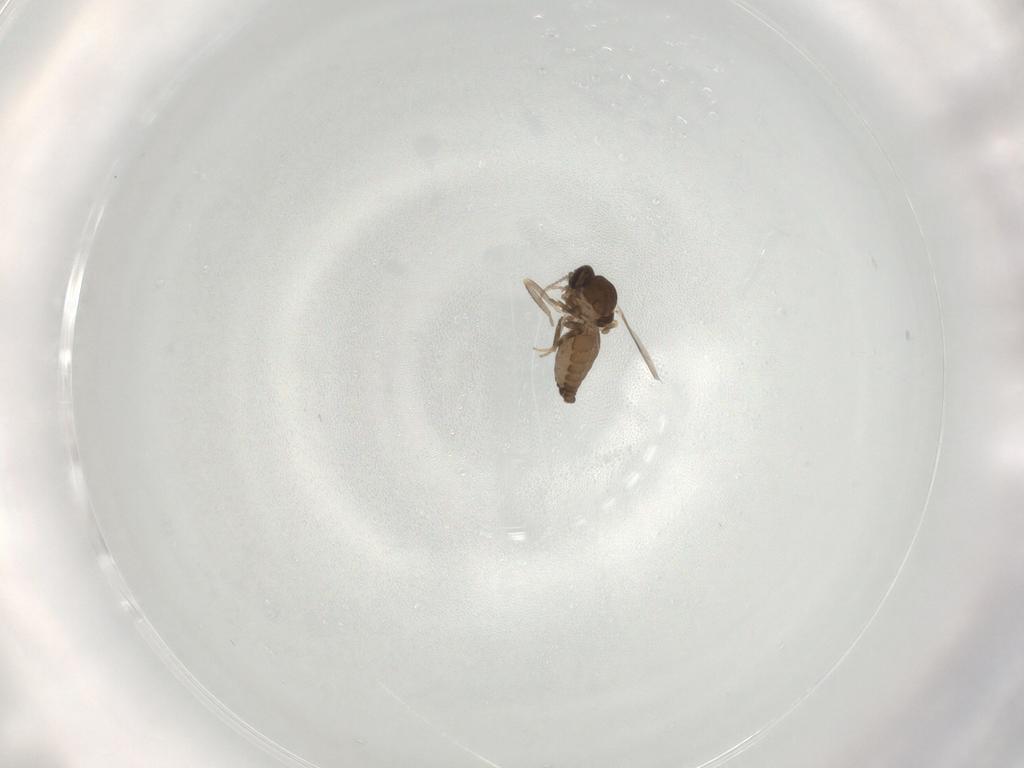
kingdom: Animalia
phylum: Arthropoda
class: Insecta
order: Diptera
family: Ceratopogonidae
